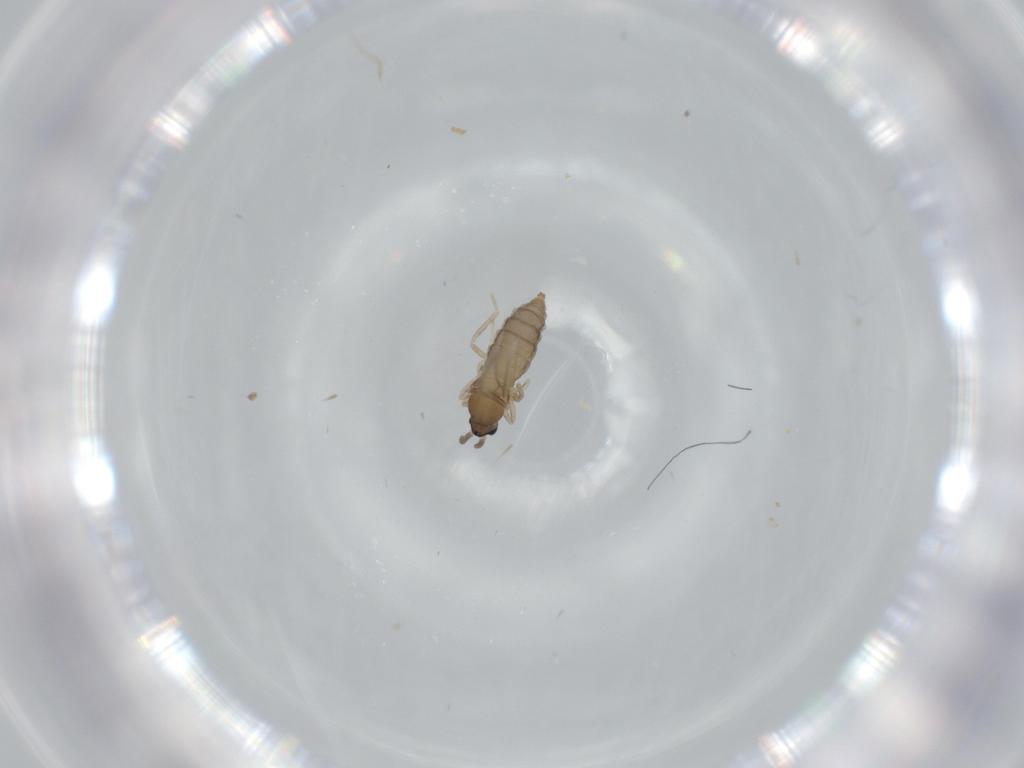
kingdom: Animalia
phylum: Arthropoda
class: Insecta
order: Diptera
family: Cecidomyiidae
